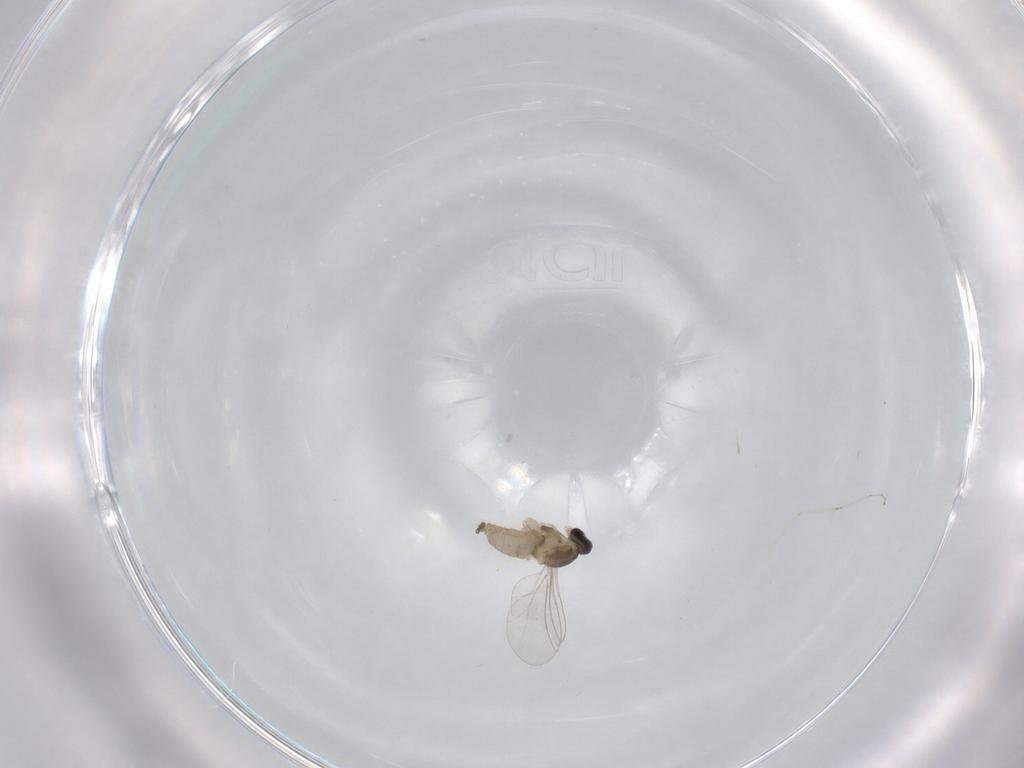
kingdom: Animalia
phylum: Arthropoda
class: Insecta
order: Diptera
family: Cecidomyiidae
